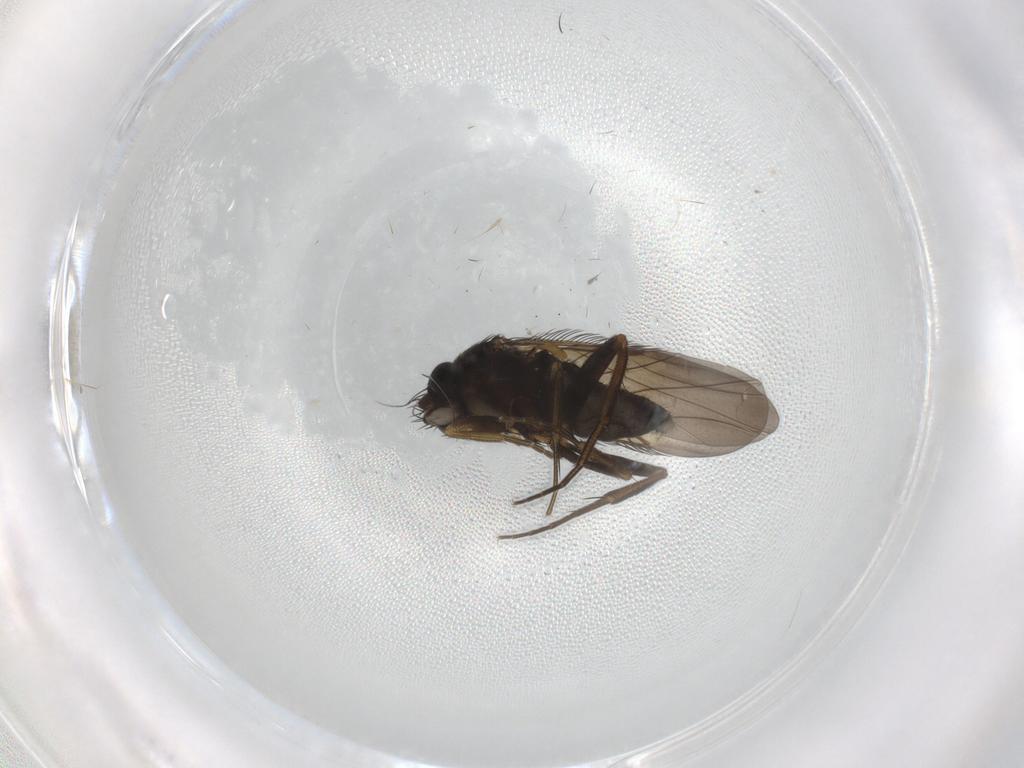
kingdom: Animalia
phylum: Arthropoda
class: Insecta
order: Diptera
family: Phoridae
